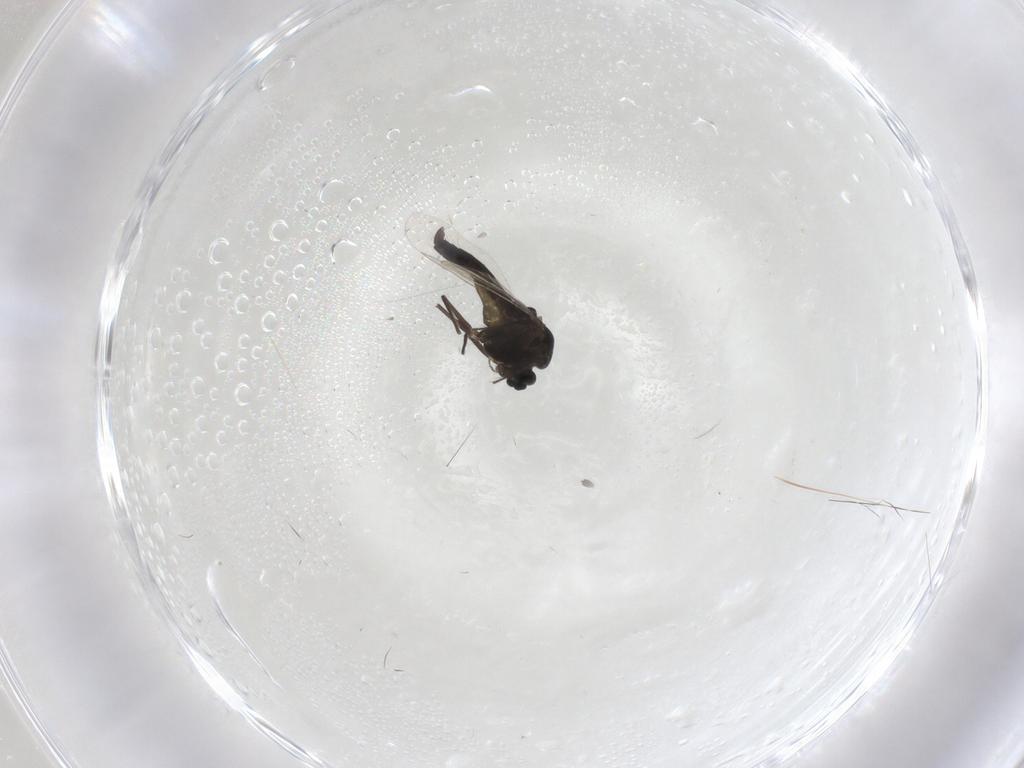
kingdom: Animalia
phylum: Arthropoda
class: Insecta
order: Diptera
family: Chironomidae
